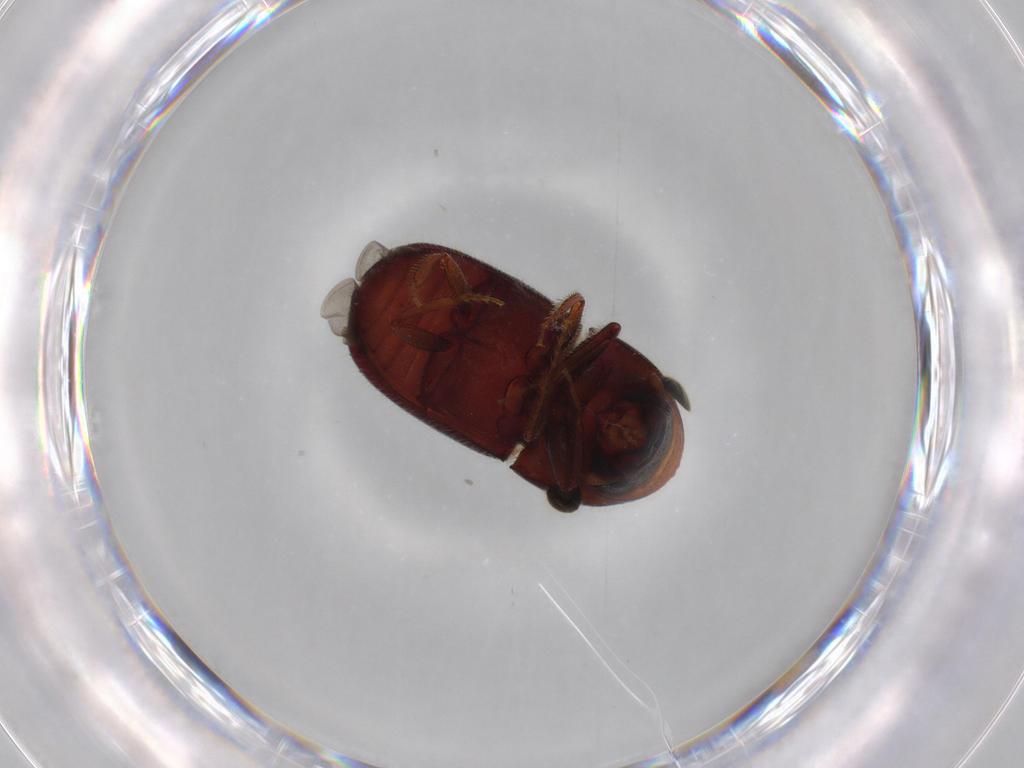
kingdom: Animalia
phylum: Arthropoda
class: Insecta
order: Coleoptera
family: Curculionidae
